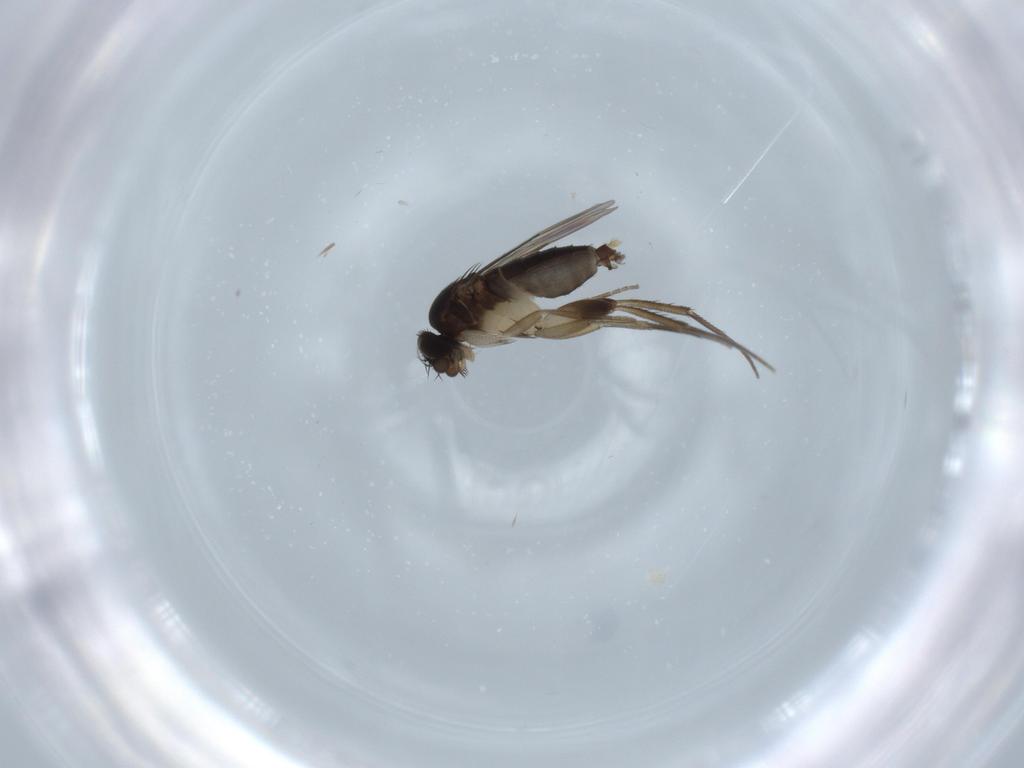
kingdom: Animalia
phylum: Arthropoda
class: Insecta
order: Diptera
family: Phoridae
